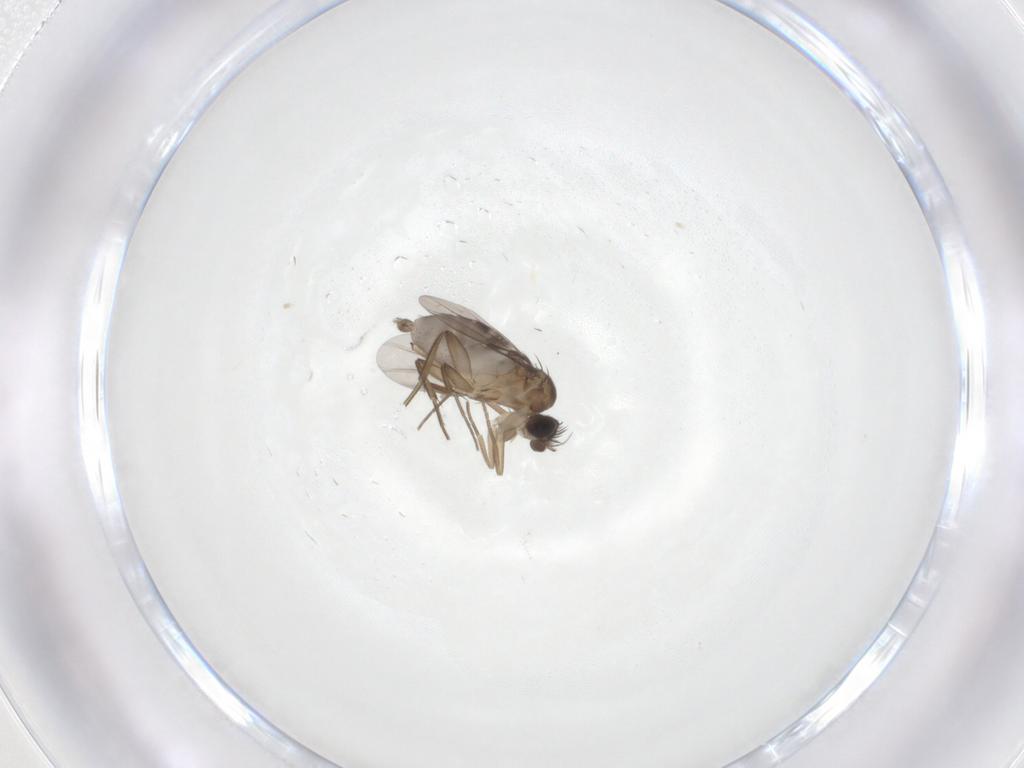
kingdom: Animalia
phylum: Arthropoda
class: Insecta
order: Diptera
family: Phoridae
